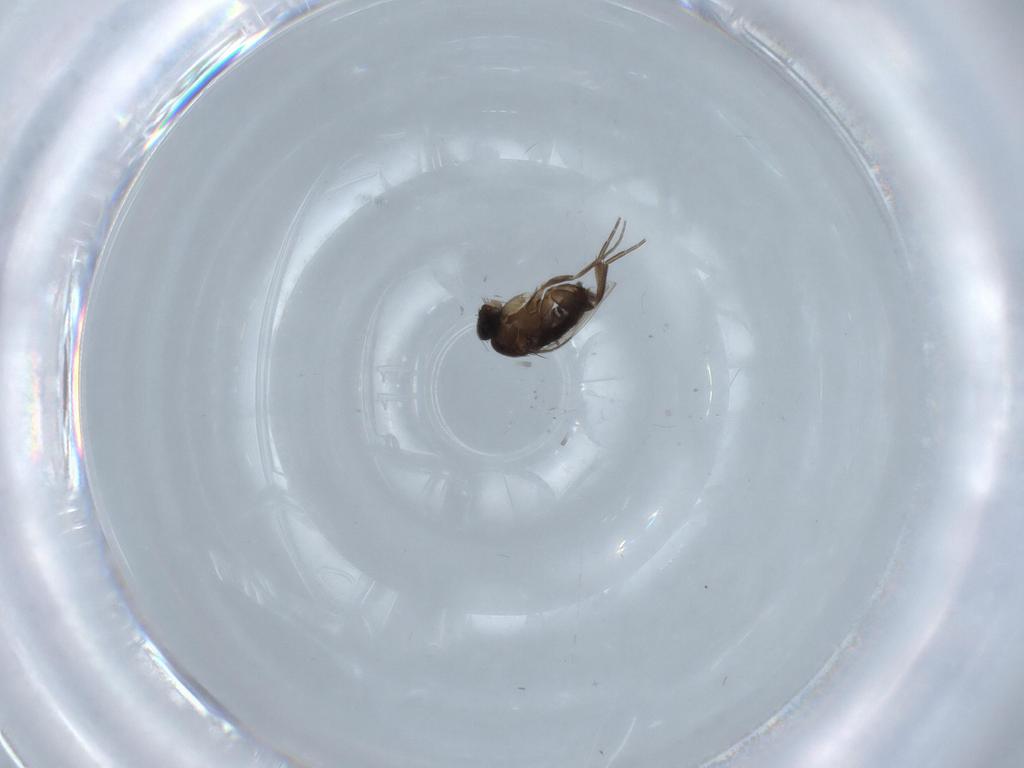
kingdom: Animalia
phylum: Arthropoda
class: Insecta
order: Diptera
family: Phoridae
